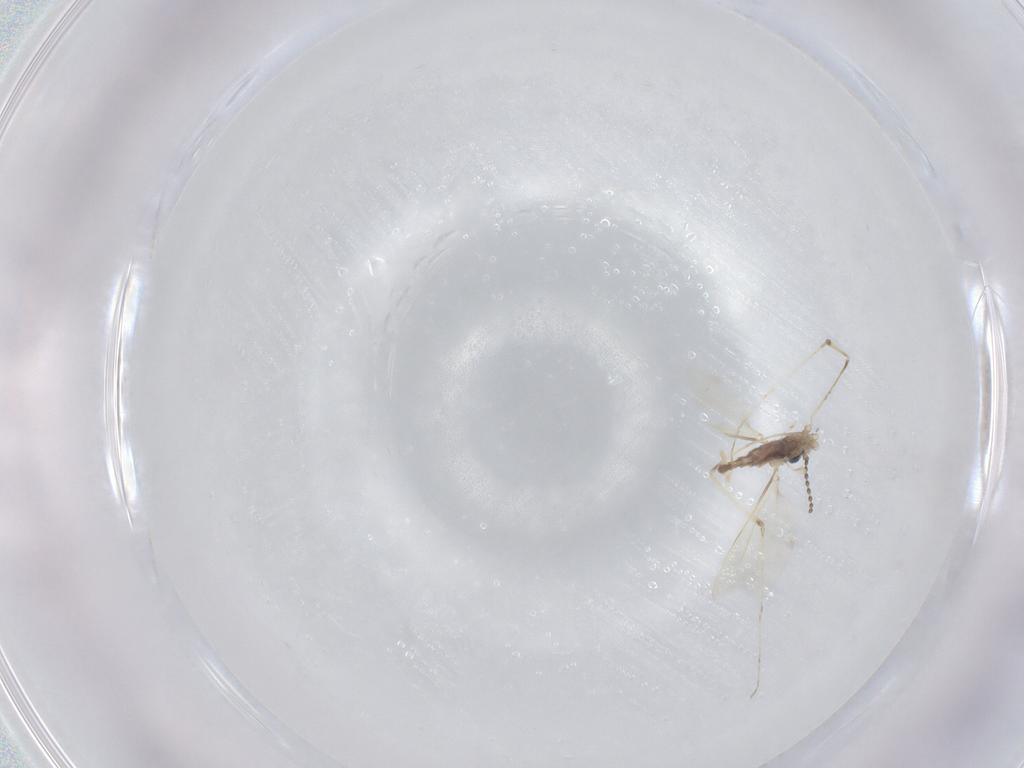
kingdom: Animalia
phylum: Arthropoda
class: Insecta
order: Diptera
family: Cecidomyiidae
